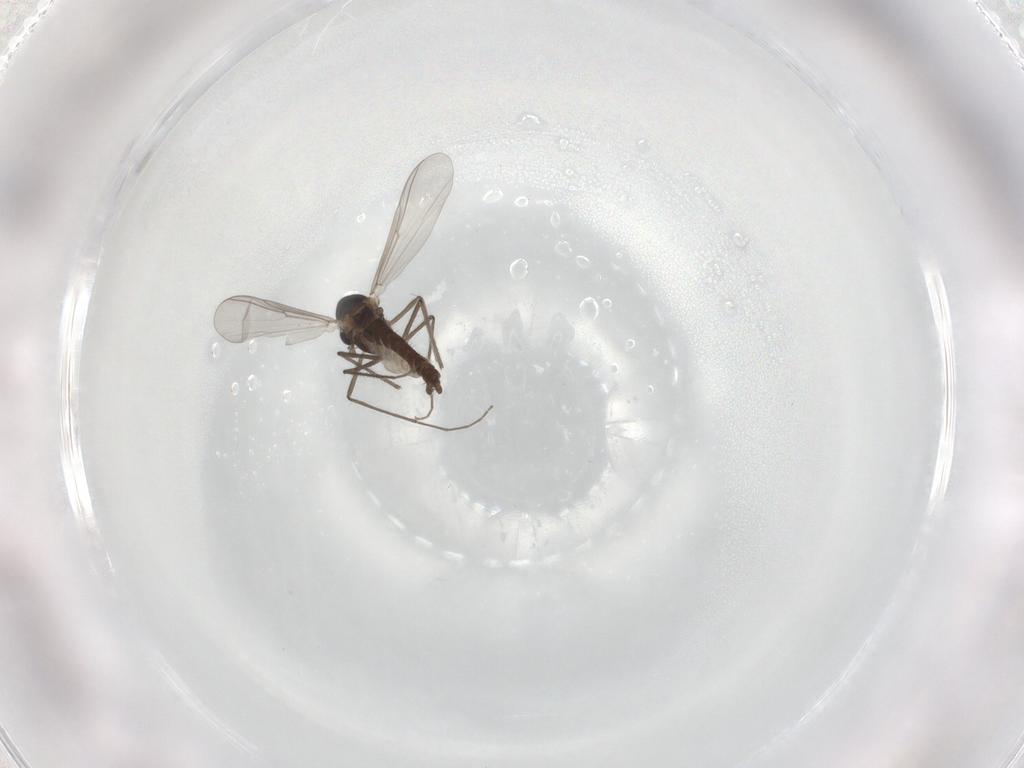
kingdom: Animalia
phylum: Arthropoda
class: Insecta
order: Diptera
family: Chironomidae
